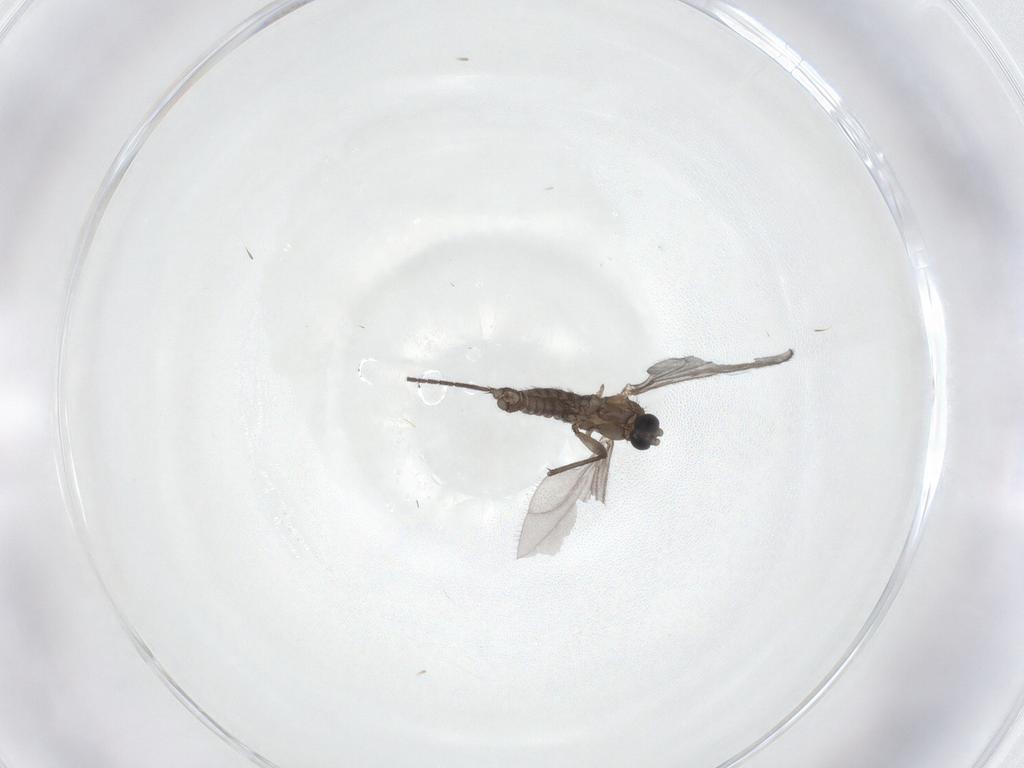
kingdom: Animalia
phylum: Arthropoda
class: Insecta
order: Diptera
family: Sciaridae
